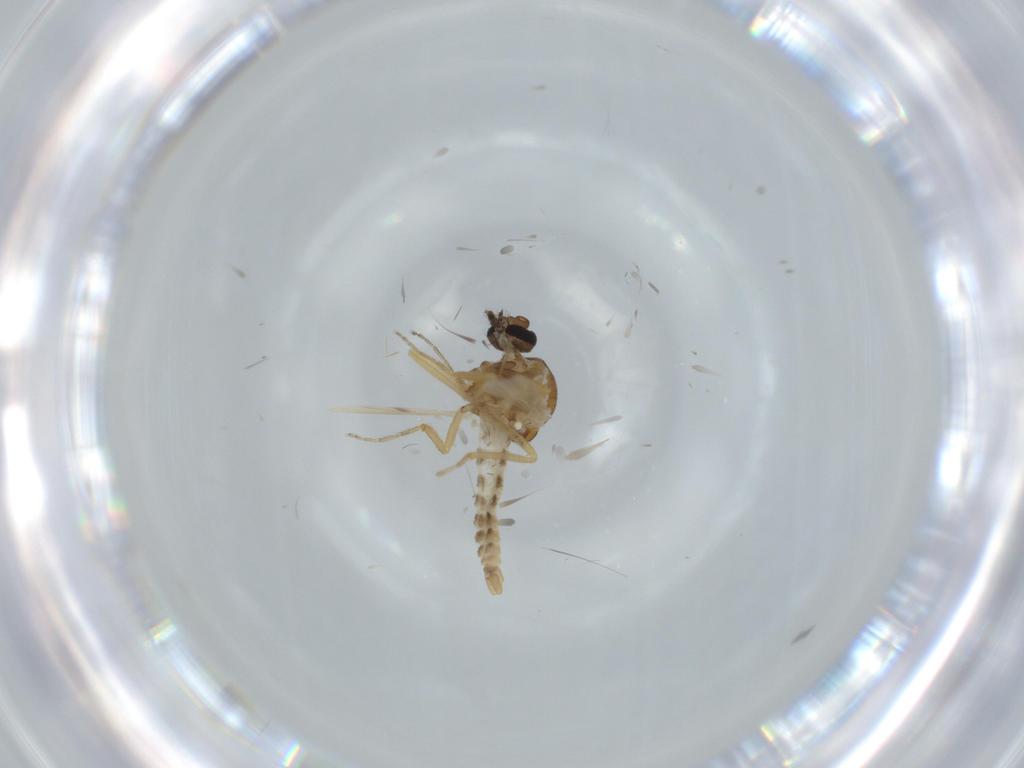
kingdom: Animalia
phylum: Arthropoda
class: Insecta
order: Diptera
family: Ceratopogonidae
